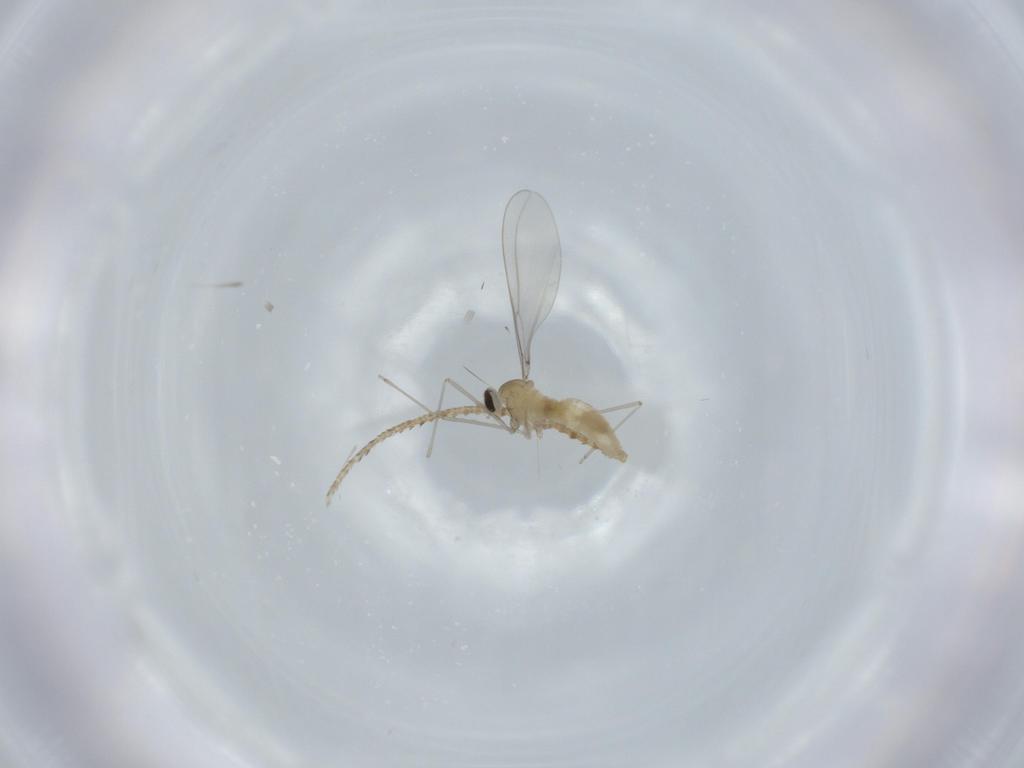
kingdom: Animalia
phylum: Arthropoda
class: Insecta
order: Diptera
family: Cecidomyiidae
